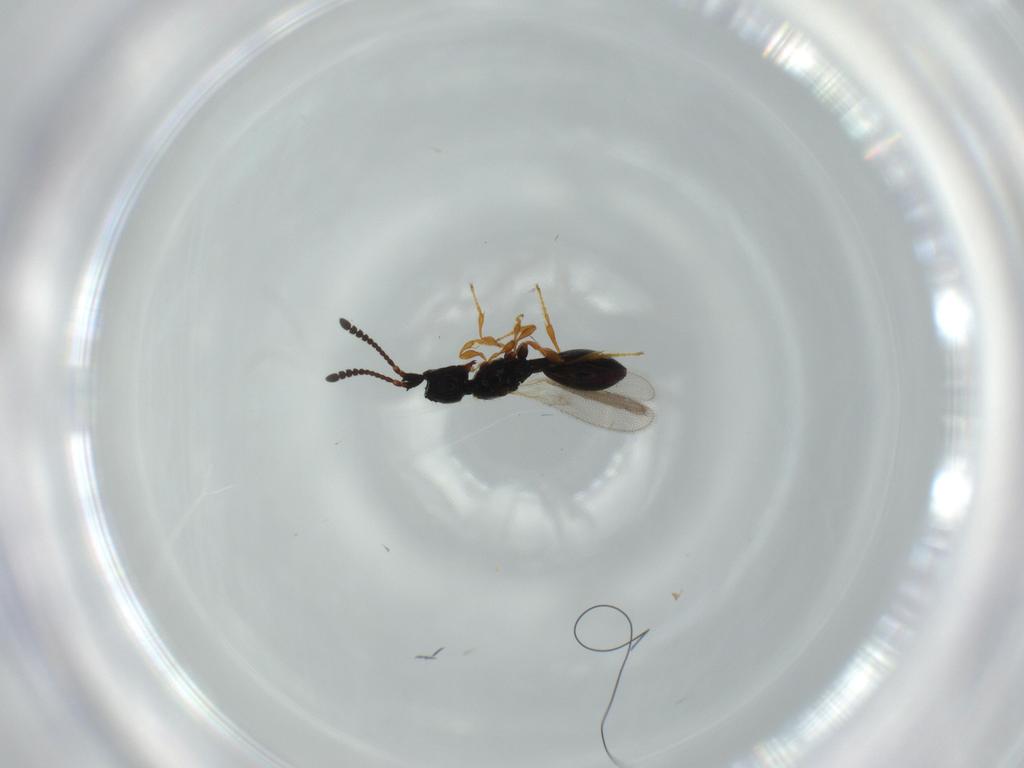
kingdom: Animalia
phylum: Arthropoda
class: Insecta
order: Hymenoptera
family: Diapriidae
